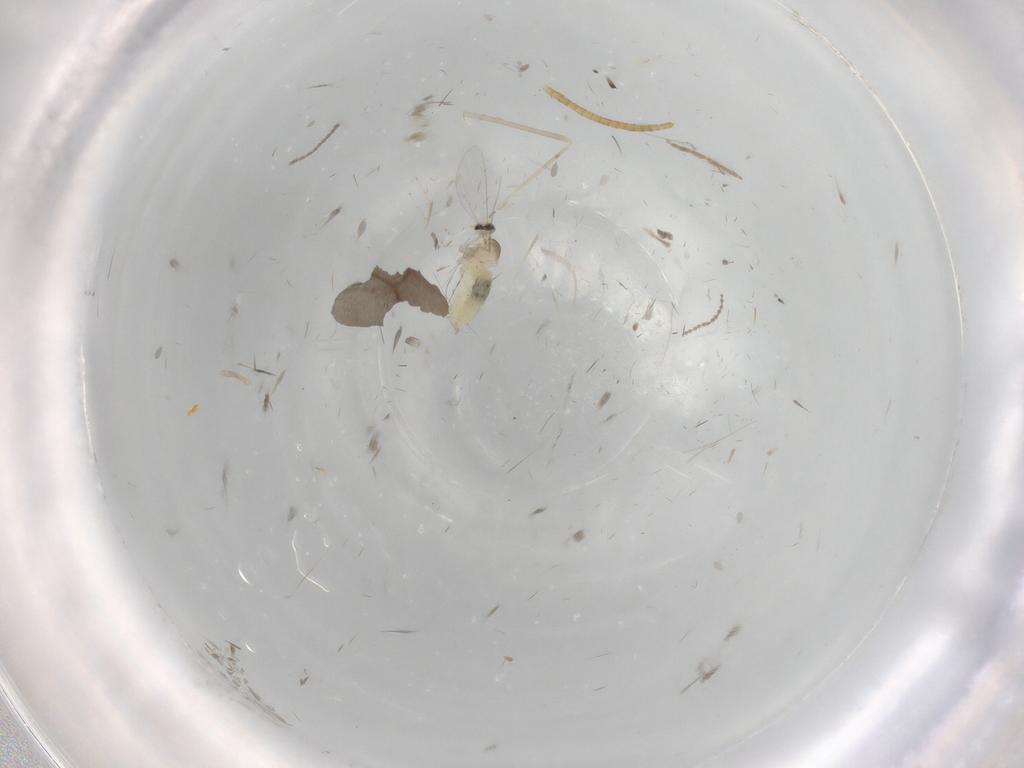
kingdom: Animalia
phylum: Arthropoda
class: Insecta
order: Diptera
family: Cecidomyiidae
